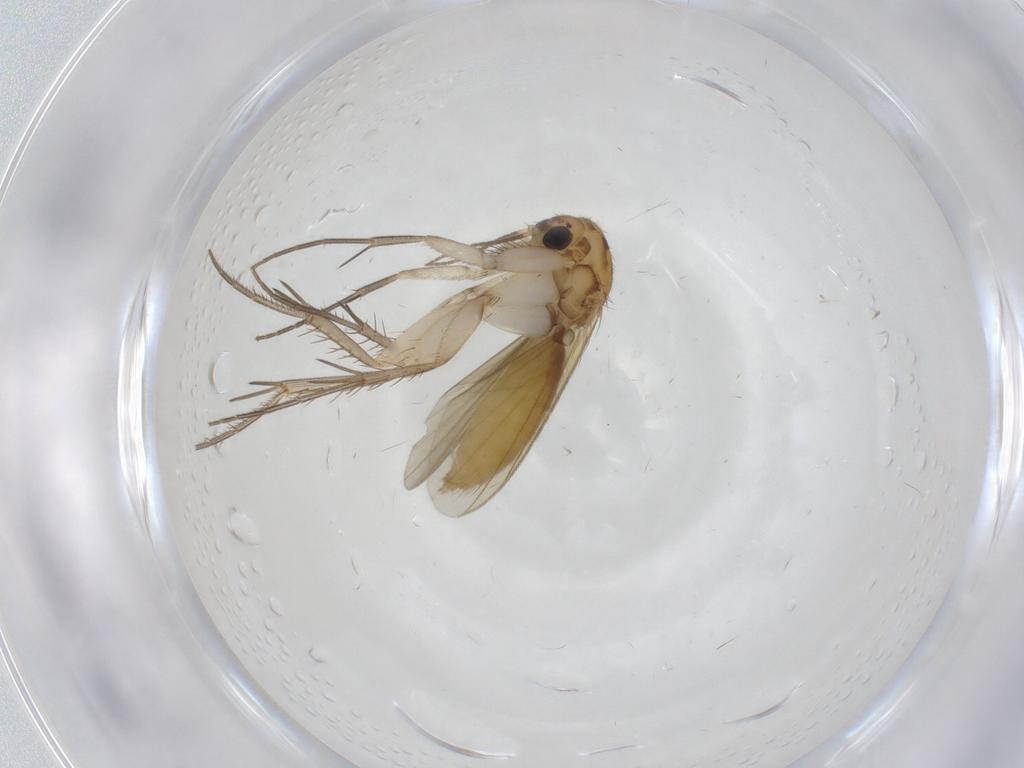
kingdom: Animalia
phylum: Arthropoda
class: Insecta
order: Diptera
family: Mycetophilidae
